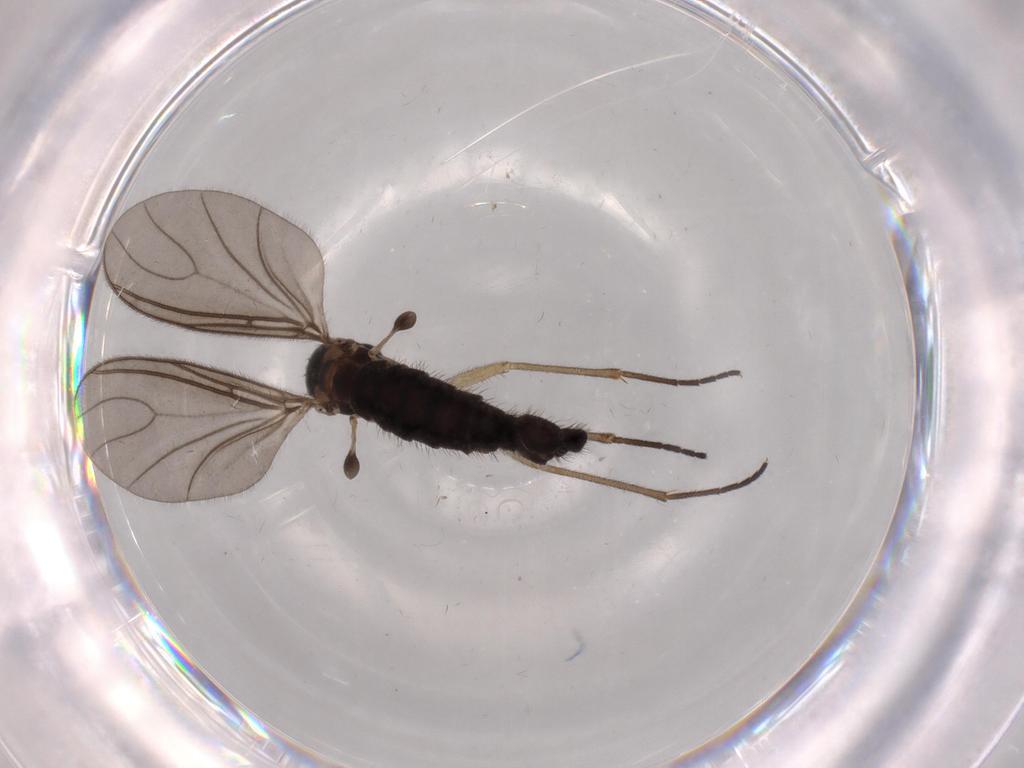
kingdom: Animalia
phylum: Arthropoda
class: Insecta
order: Diptera
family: Sciaridae
